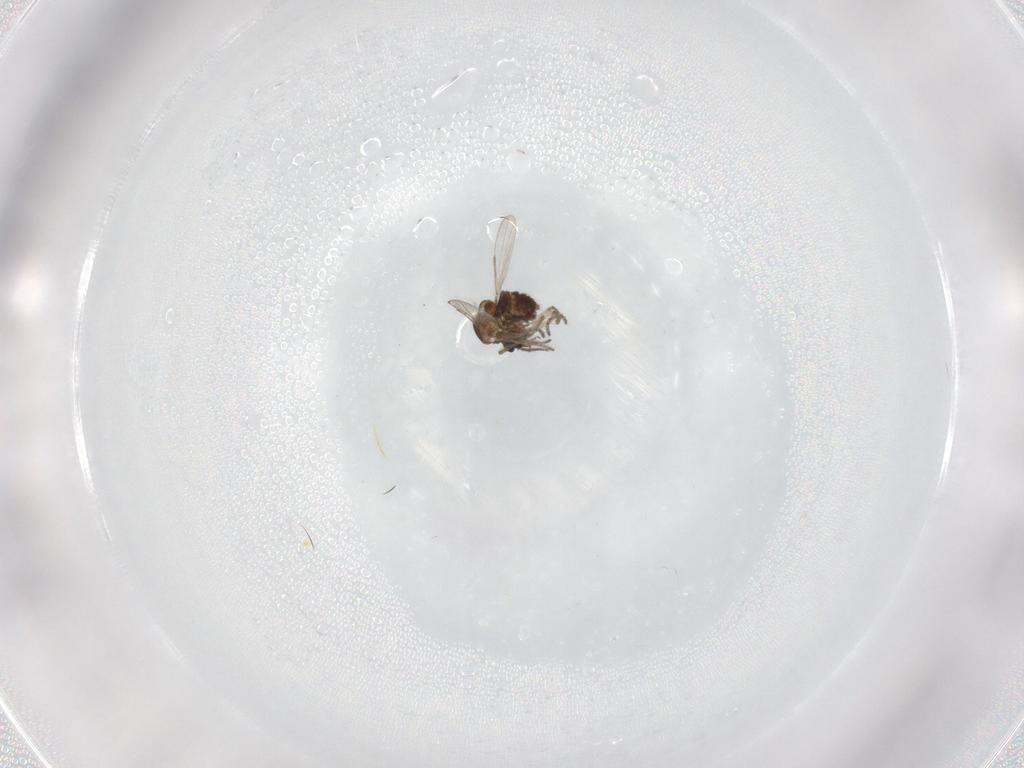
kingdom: Animalia
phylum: Arthropoda
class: Insecta
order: Diptera
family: Ceratopogonidae
